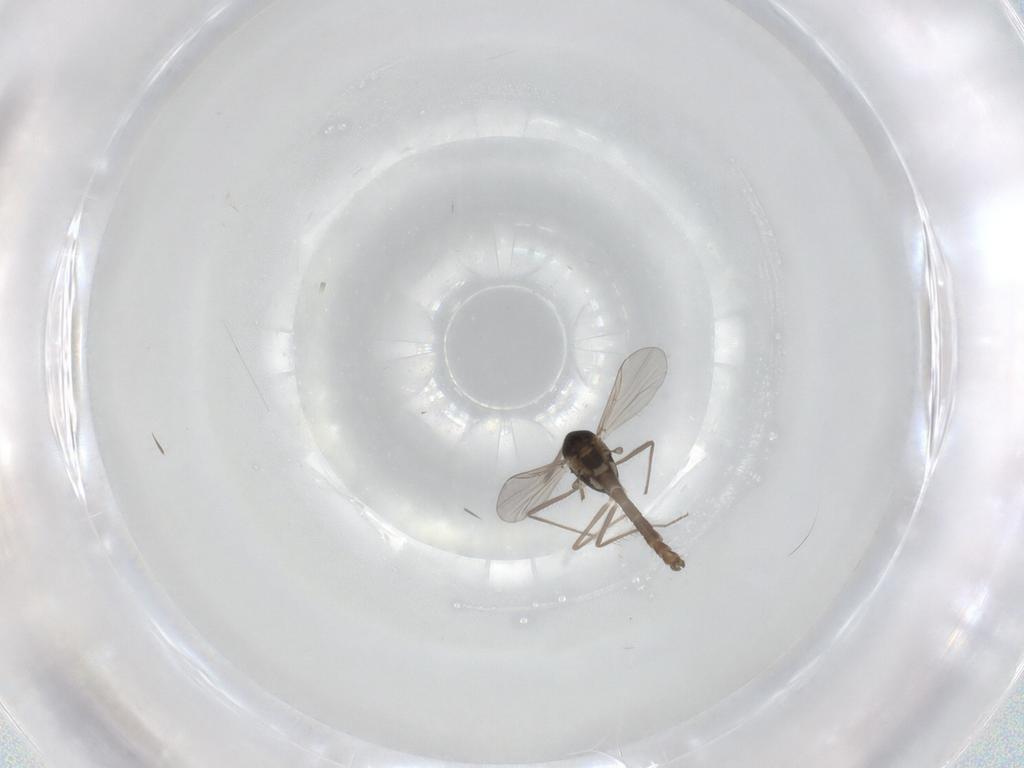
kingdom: Animalia
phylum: Arthropoda
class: Insecta
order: Diptera
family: Chironomidae
